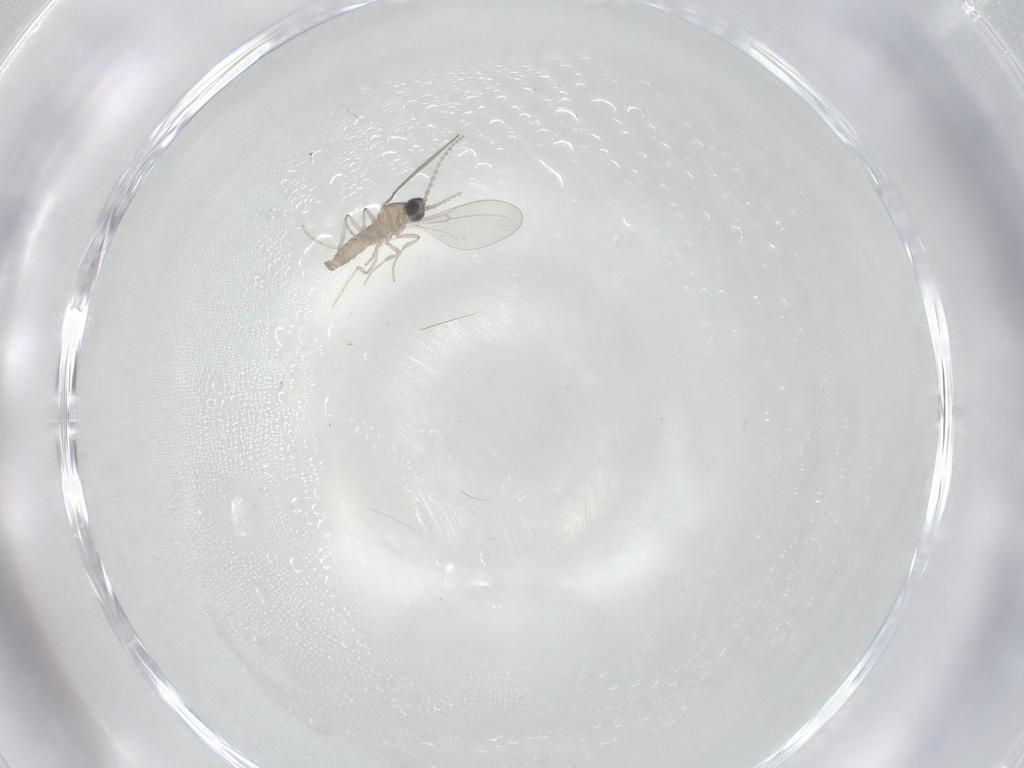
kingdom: Animalia
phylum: Arthropoda
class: Insecta
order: Diptera
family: Cecidomyiidae
